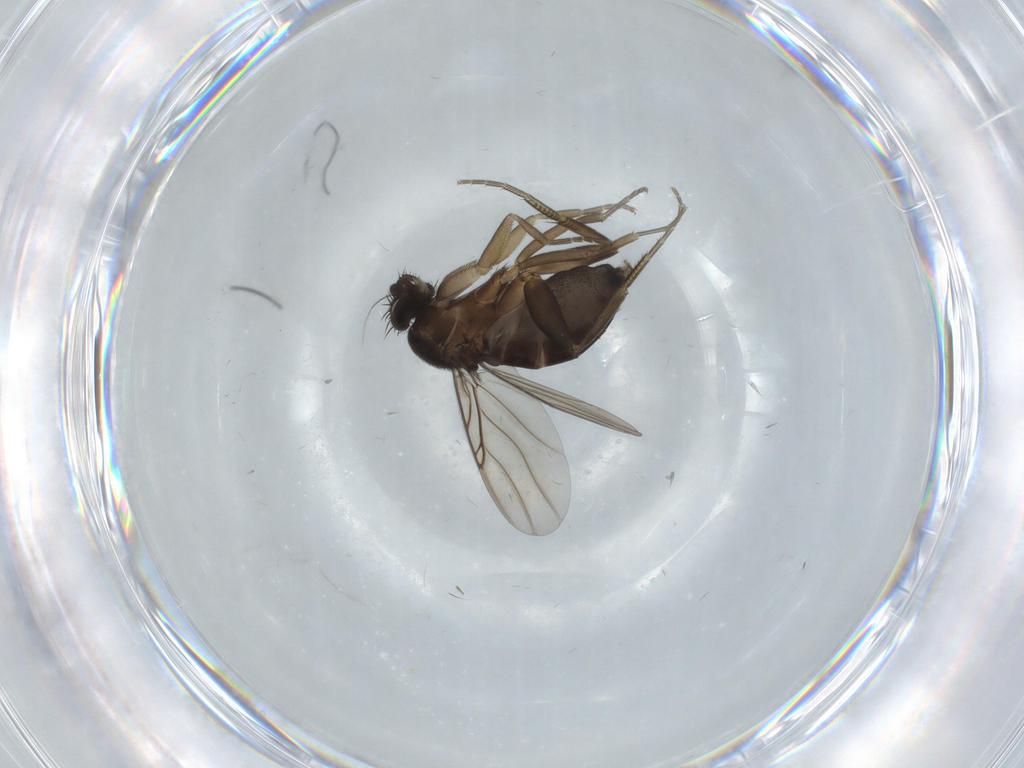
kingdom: Animalia
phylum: Arthropoda
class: Insecta
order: Diptera
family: Phoridae
